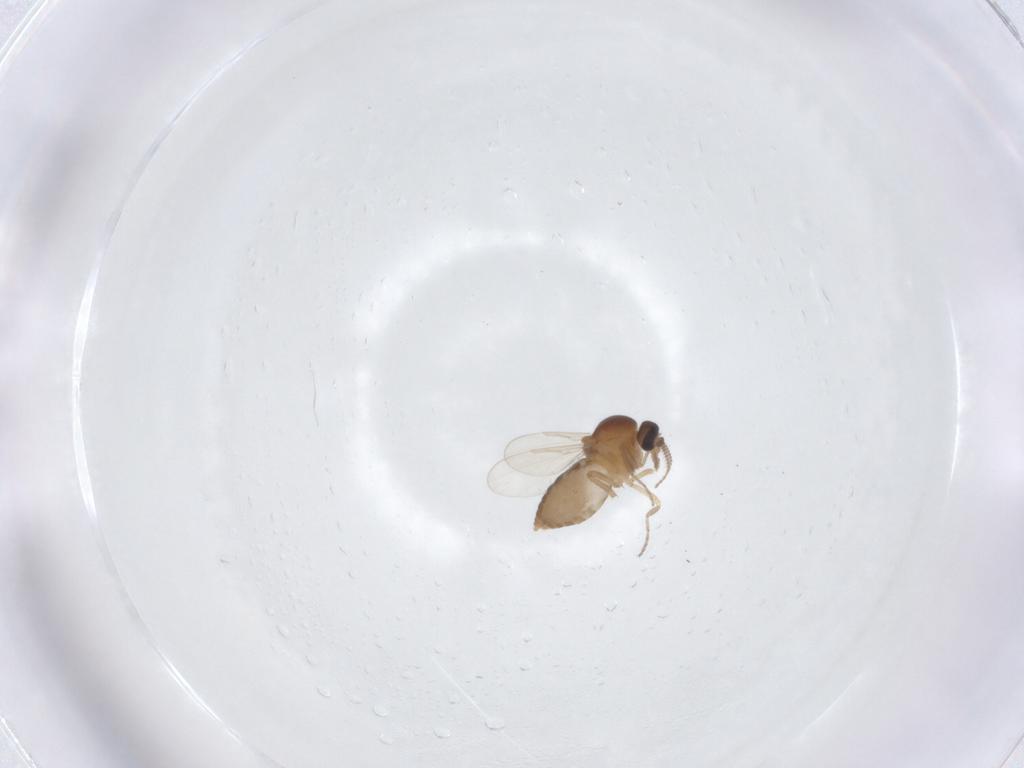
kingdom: Animalia
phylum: Arthropoda
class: Insecta
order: Diptera
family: Ceratopogonidae
